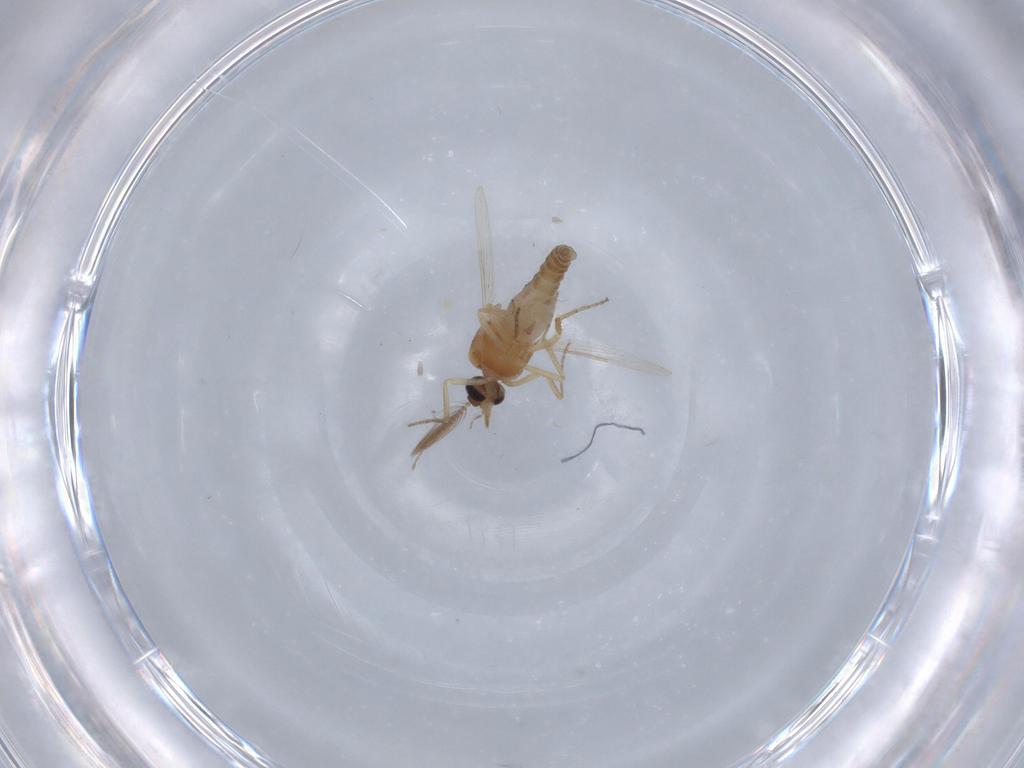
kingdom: Animalia
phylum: Arthropoda
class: Insecta
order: Diptera
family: Ceratopogonidae
